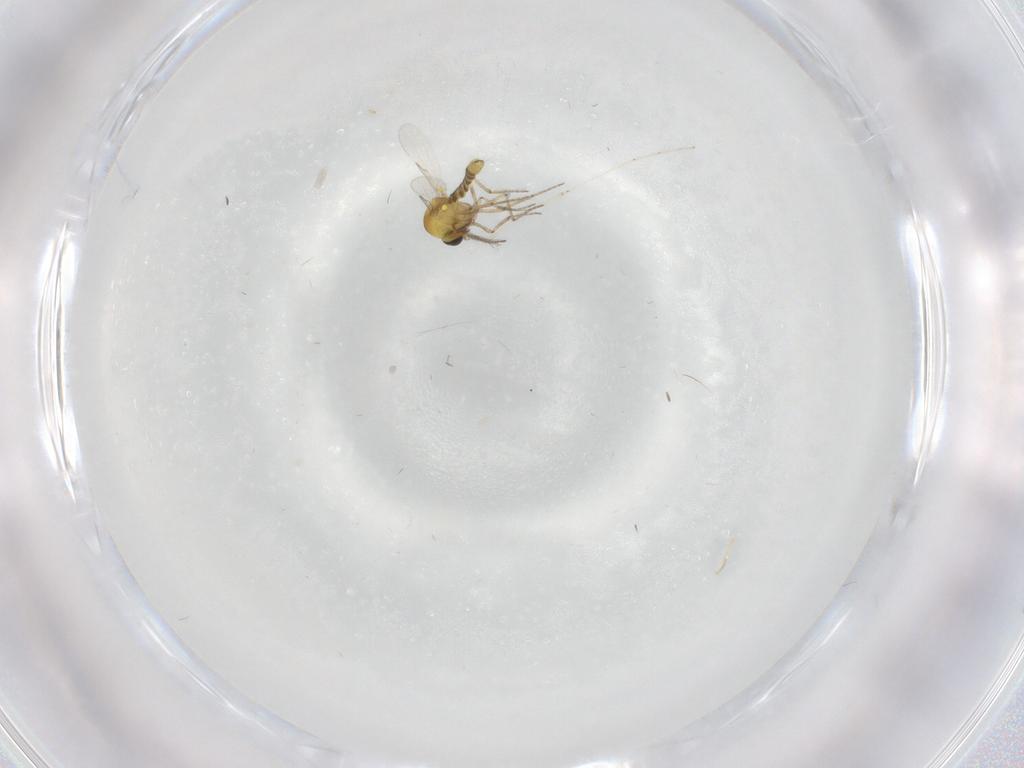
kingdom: Animalia
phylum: Arthropoda
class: Insecta
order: Diptera
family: Ceratopogonidae
